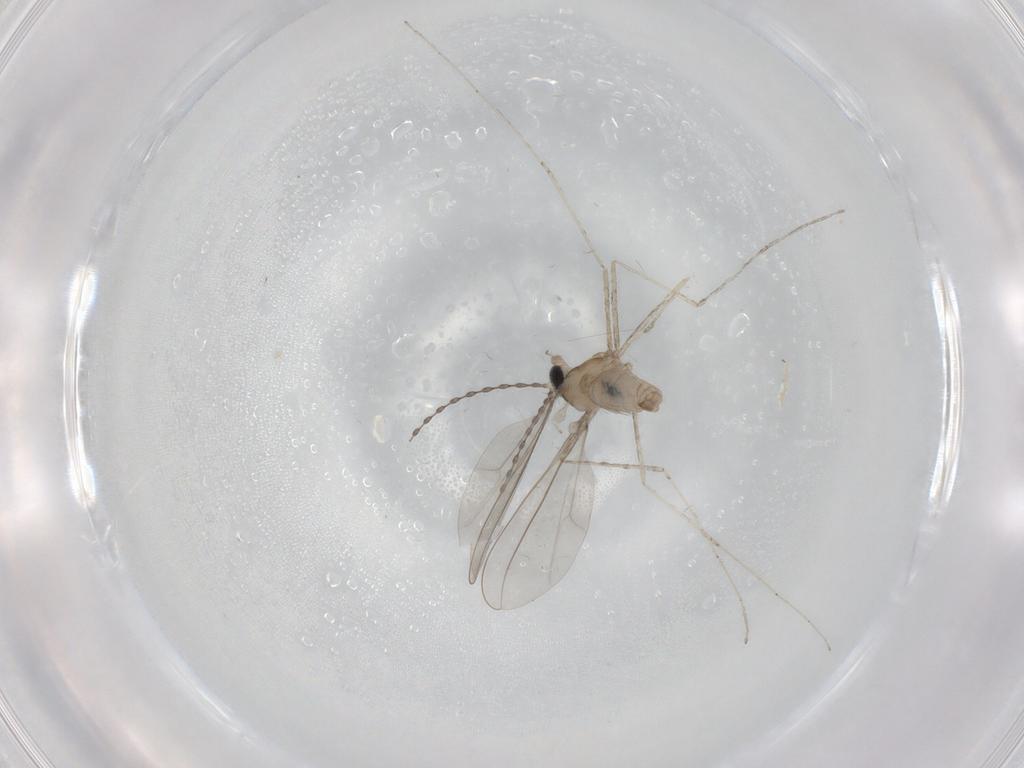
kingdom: Animalia
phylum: Arthropoda
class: Insecta
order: Diptera
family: Cecidomyiidae
